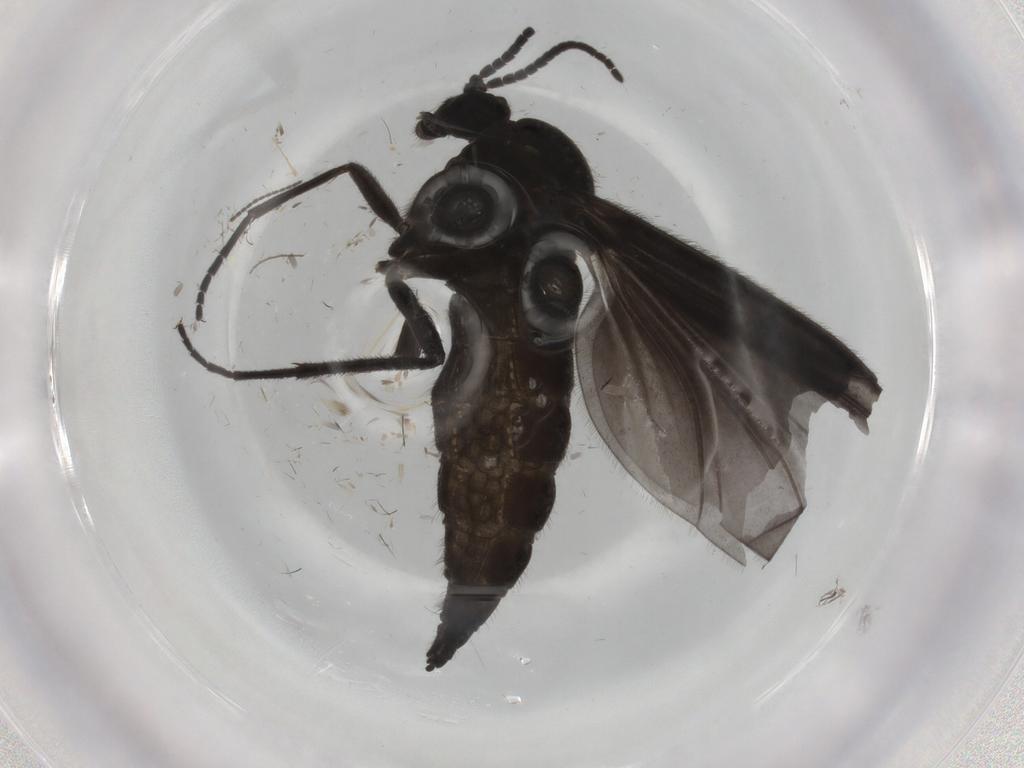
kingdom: Animalia
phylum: Arthropoda
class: Insecta
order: Diptera
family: Sciaridae
